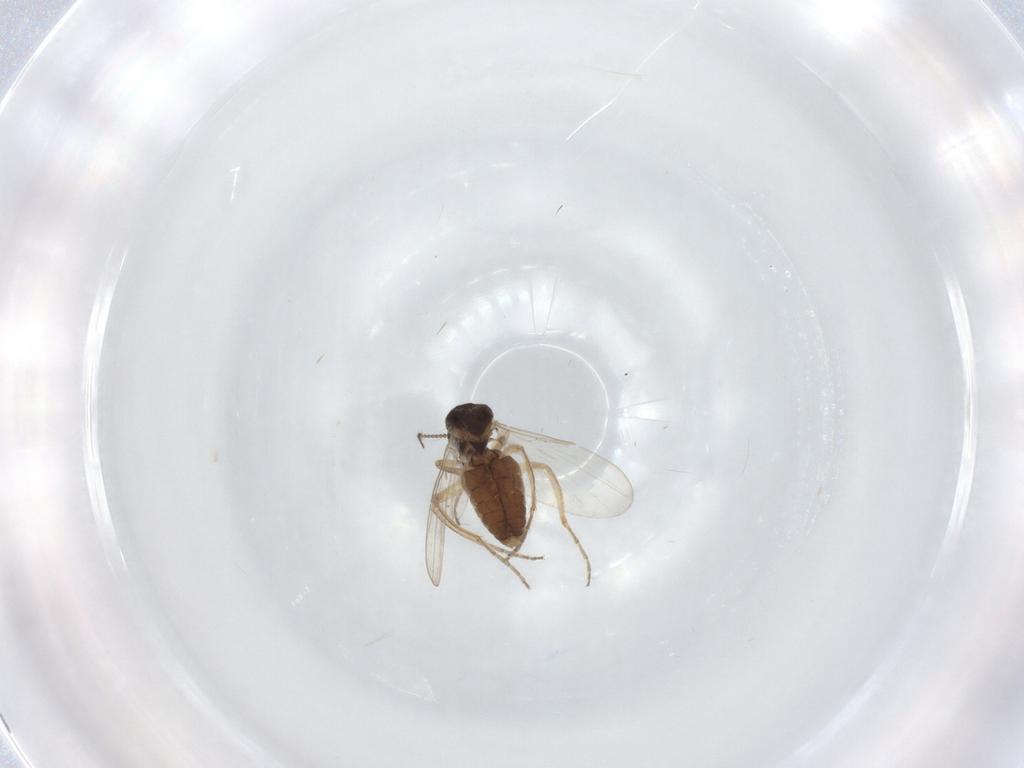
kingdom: Animalia
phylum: Arthropoda
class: Insecta
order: Diptera
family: Ceratopogonidae
